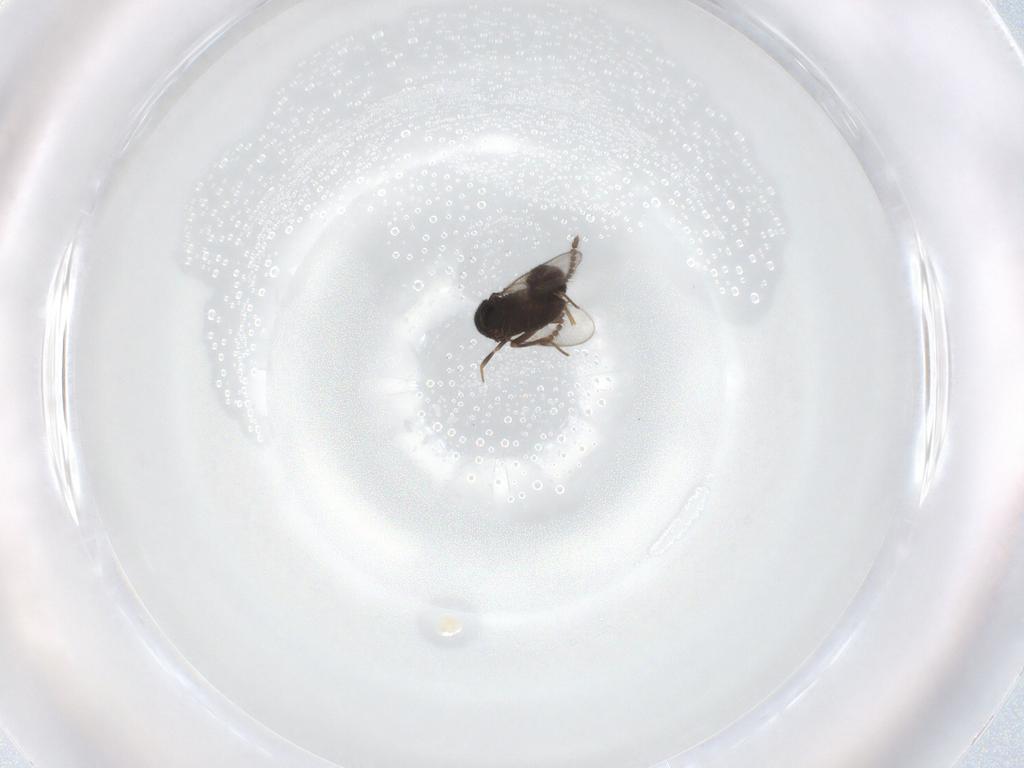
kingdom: Animalia
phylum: Arthropoda
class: Insecta
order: Hymenoptera
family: Encyrtidae
